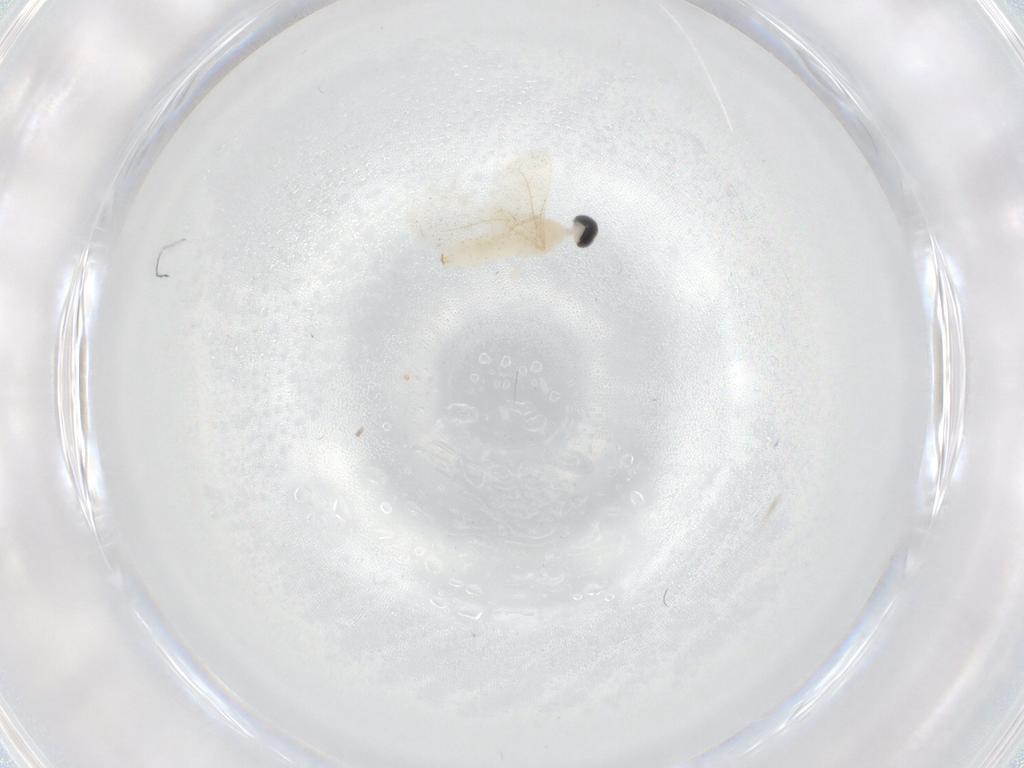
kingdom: Animalia
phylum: Arthropoda
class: Insecta
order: Diptera
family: Cecidomyiidae
